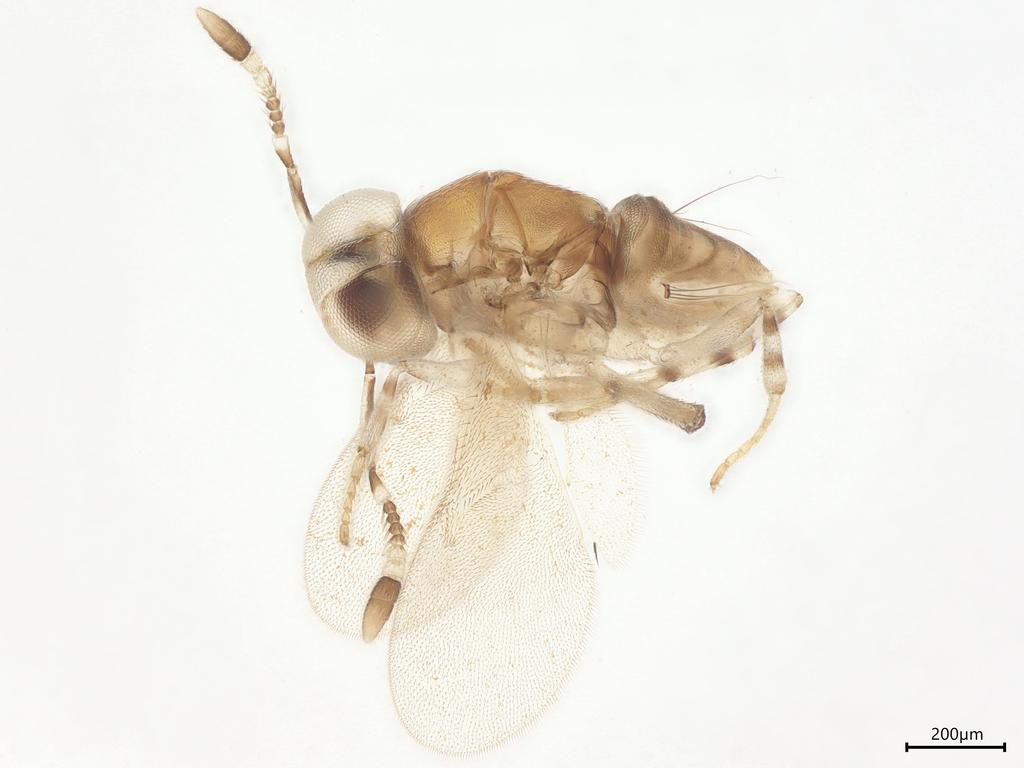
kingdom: Animalia
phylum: Arthropoda
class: Insecta
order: Hymenoptera
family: Encyrtidae
